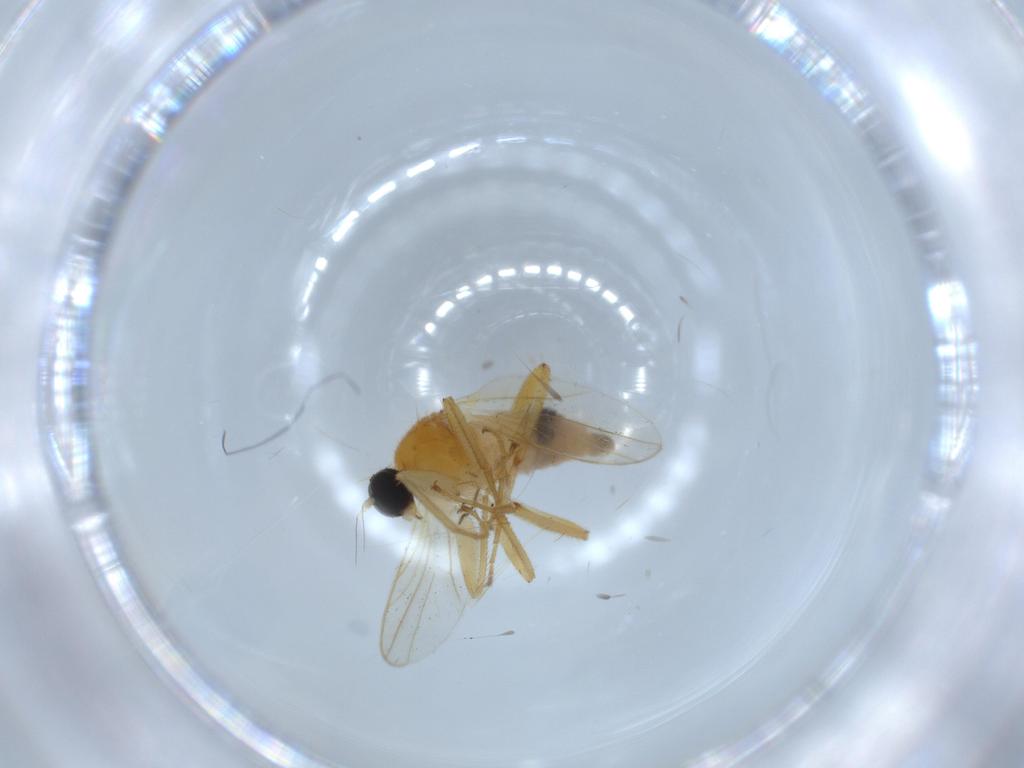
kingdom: Animalia
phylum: Arthropoda
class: Insecta
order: Diptera
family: Hybotidae
